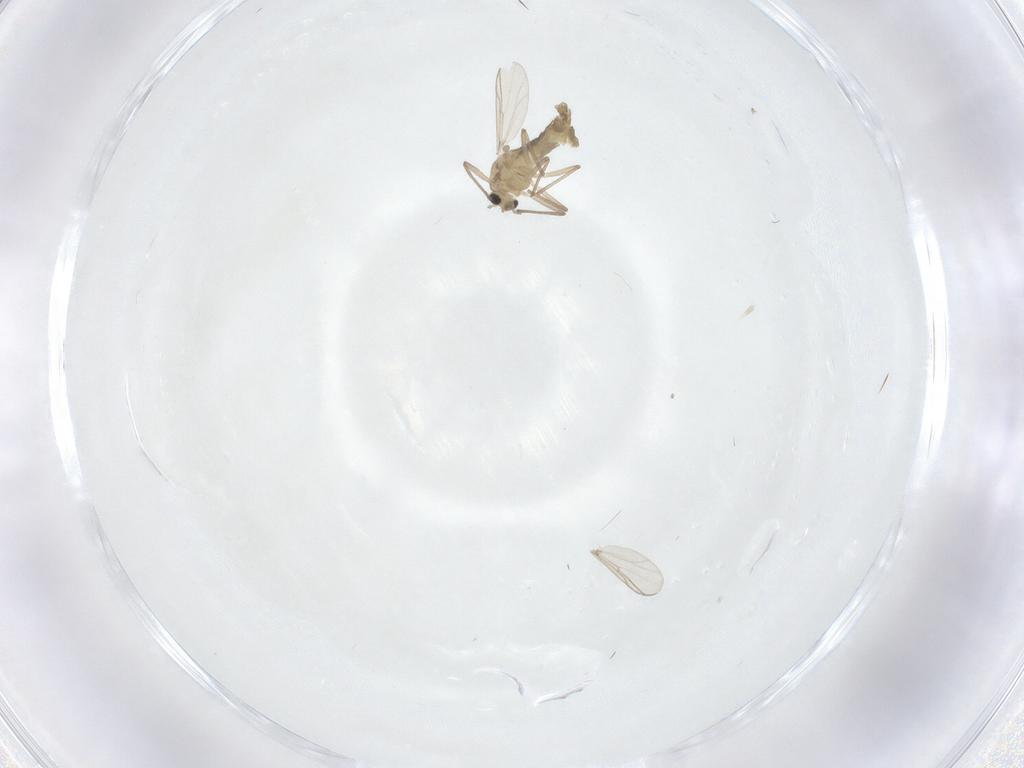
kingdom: Animalia
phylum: Arthropoda
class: Insecta
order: Diptera
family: Chironomidae
